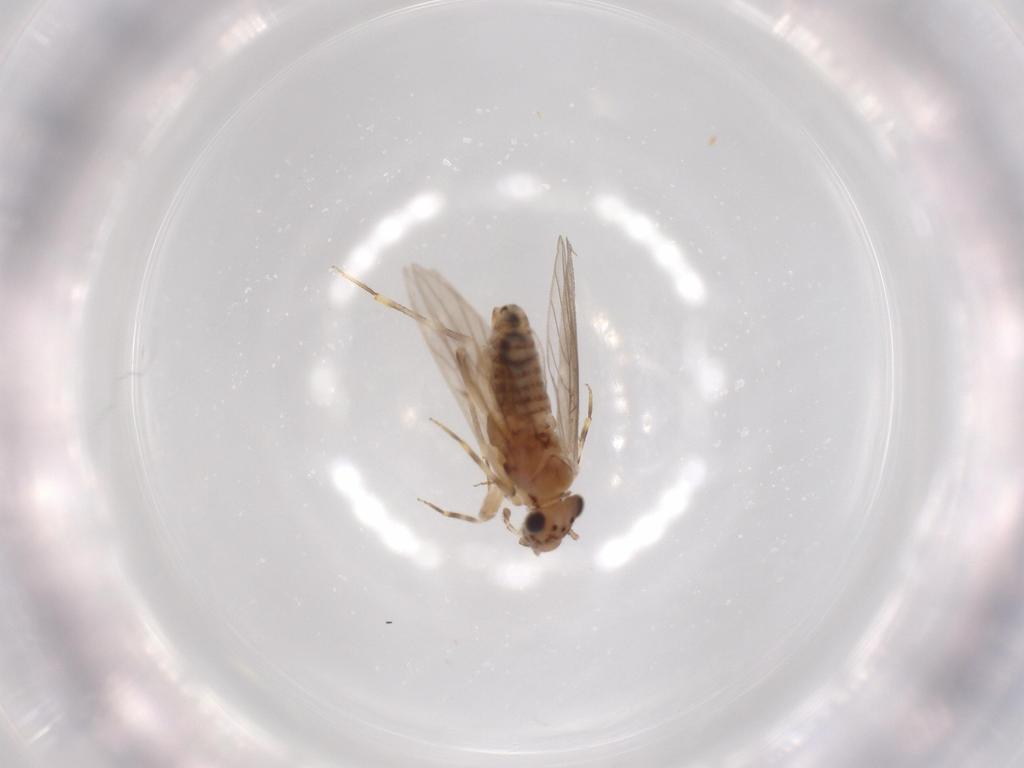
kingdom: Animalia
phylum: Arthropoda
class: Insecta
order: Psocodea
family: Lepidopsocidae
